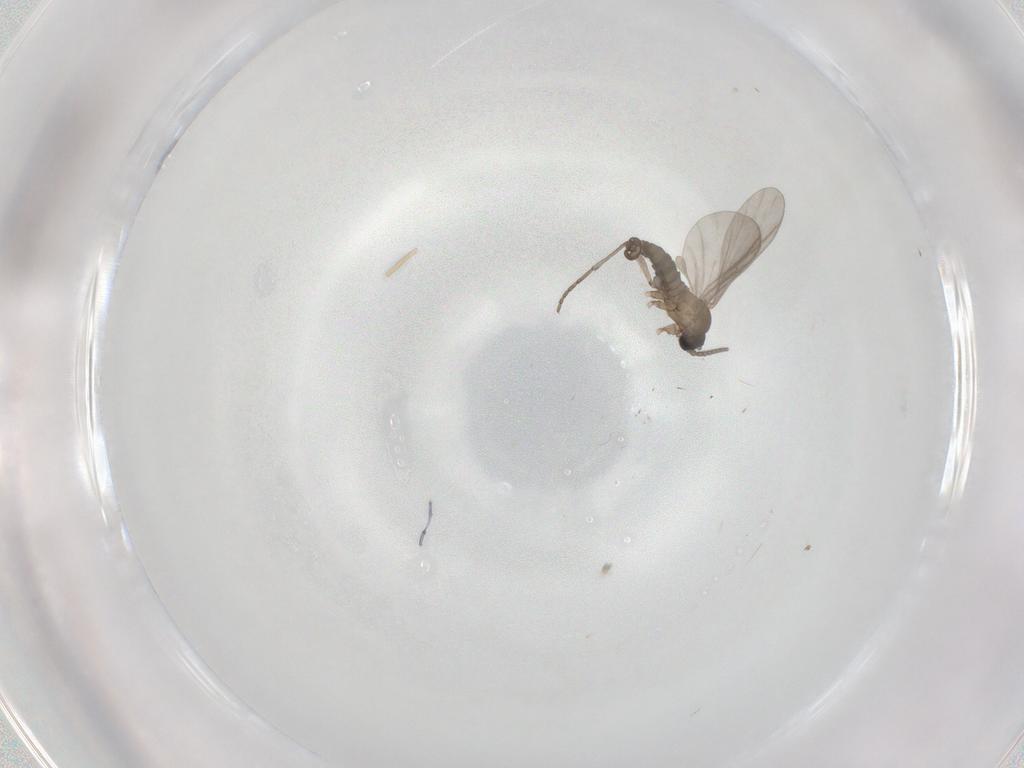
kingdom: Animalia
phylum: Arthropoda
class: Insecta
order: Diptera
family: Sciaridae
